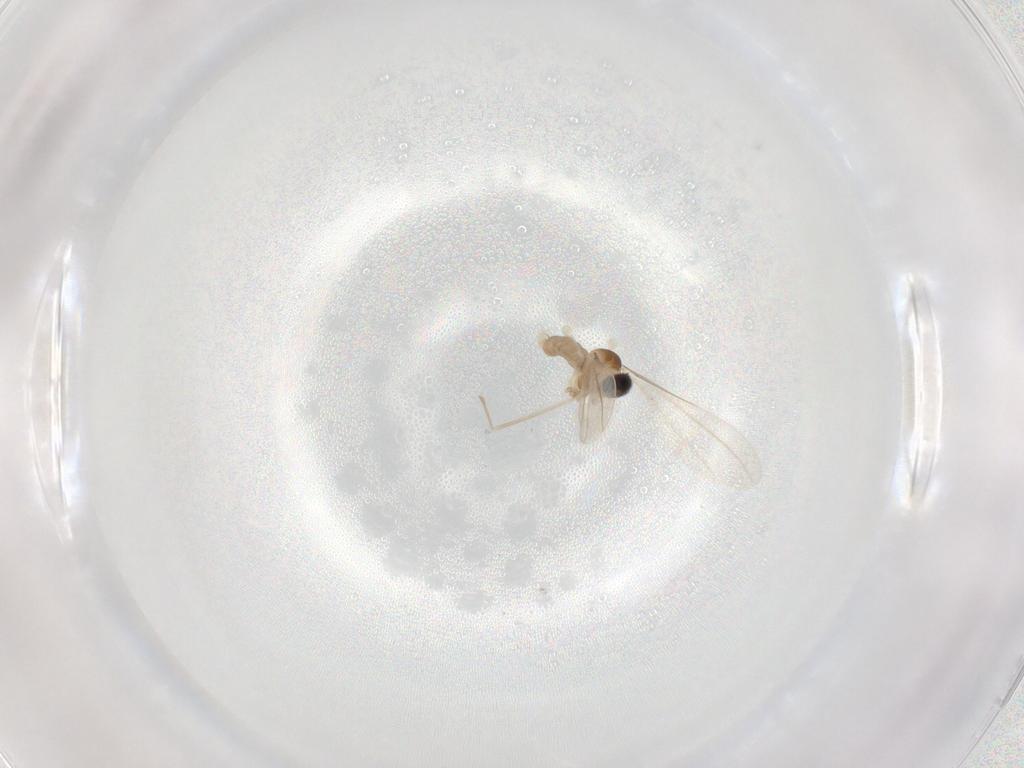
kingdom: Animalia
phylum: Arthropoda
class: Insecta
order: Diptera
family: Cecidomyiidae
